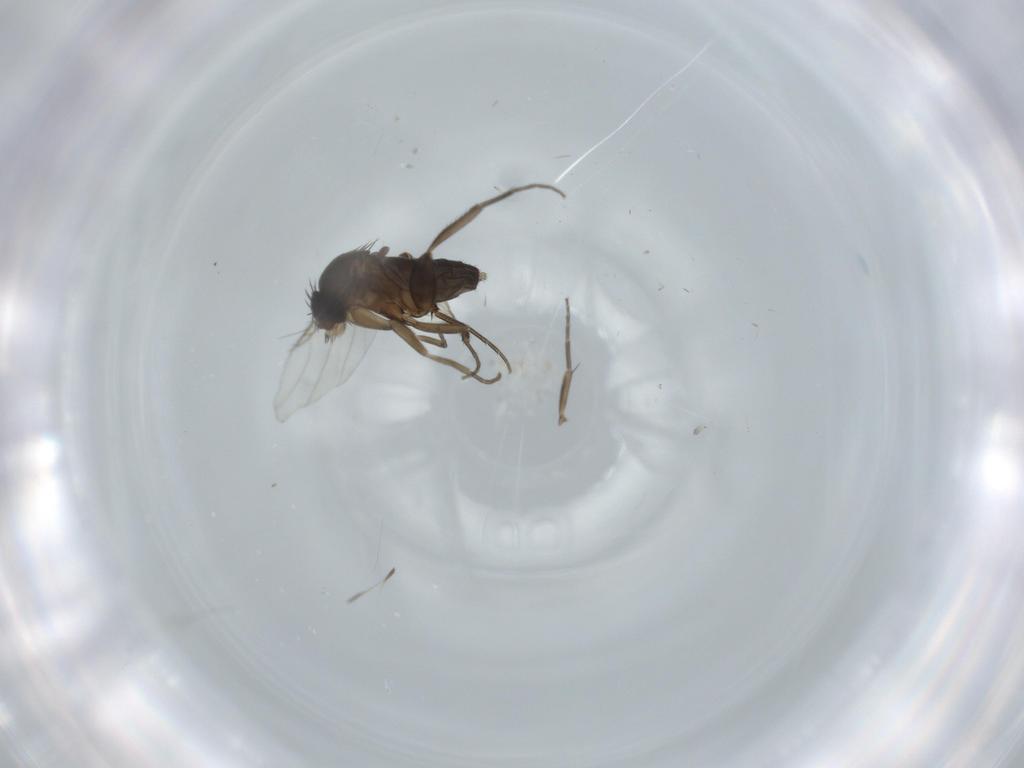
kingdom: Animalia
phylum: Arthropoda
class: Insecta
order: Diptera
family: Phoridae
